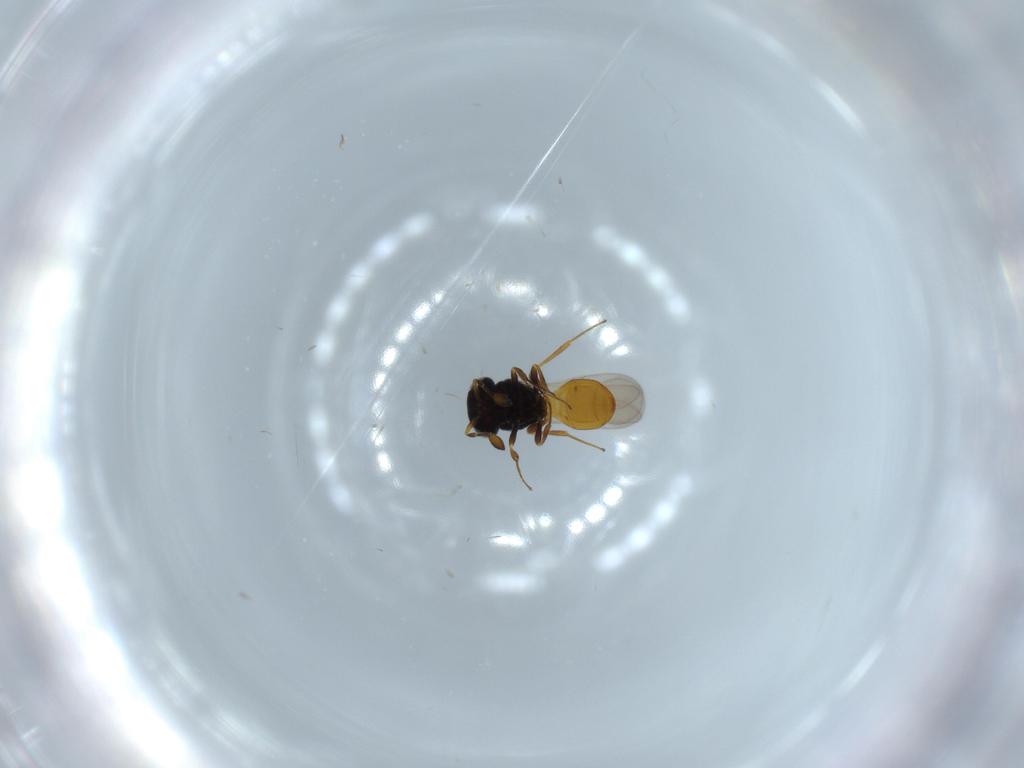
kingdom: Animalia
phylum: Arthropoda
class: Insecta
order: Hymenoptera
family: Scelionidae
